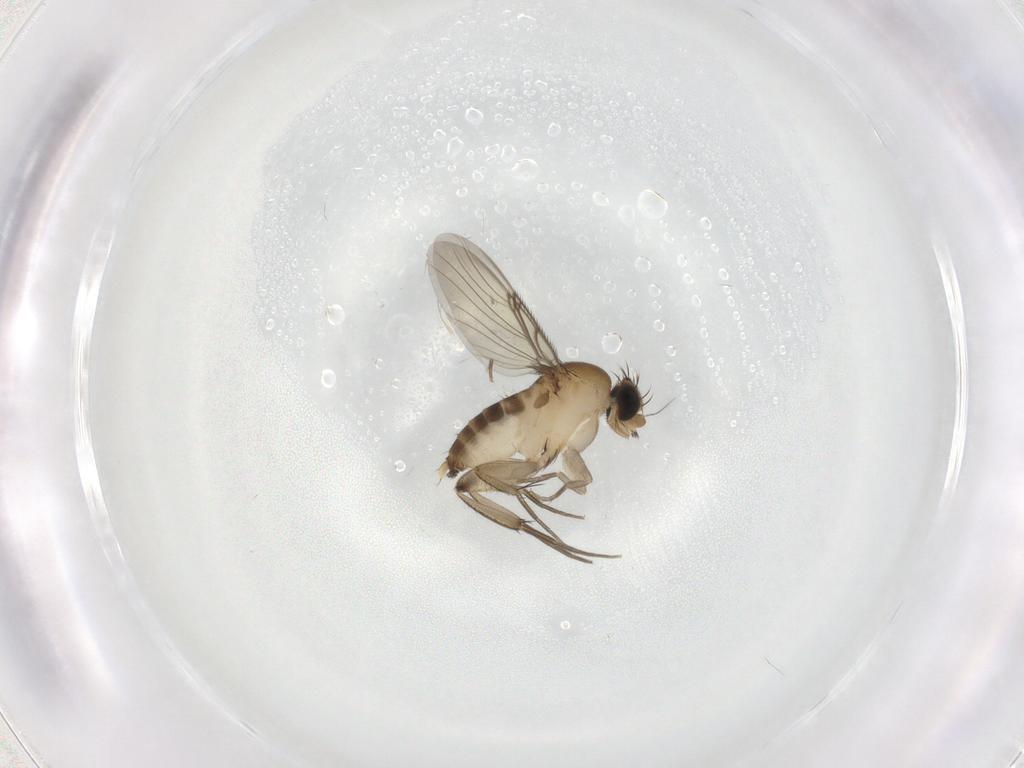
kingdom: Animalia
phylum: Arthropoda
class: Insecta
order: Diptera
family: Phoridae
